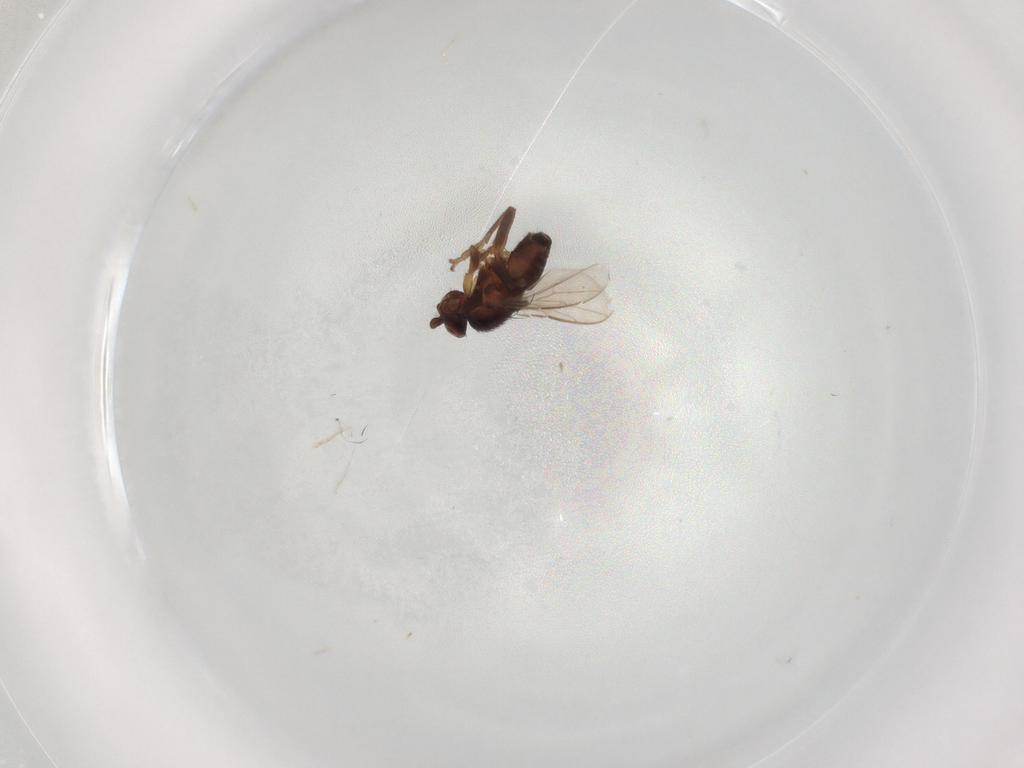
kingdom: Animalia
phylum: Arthropoda
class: Insecta
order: Diptera
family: Sphaeroceridae
